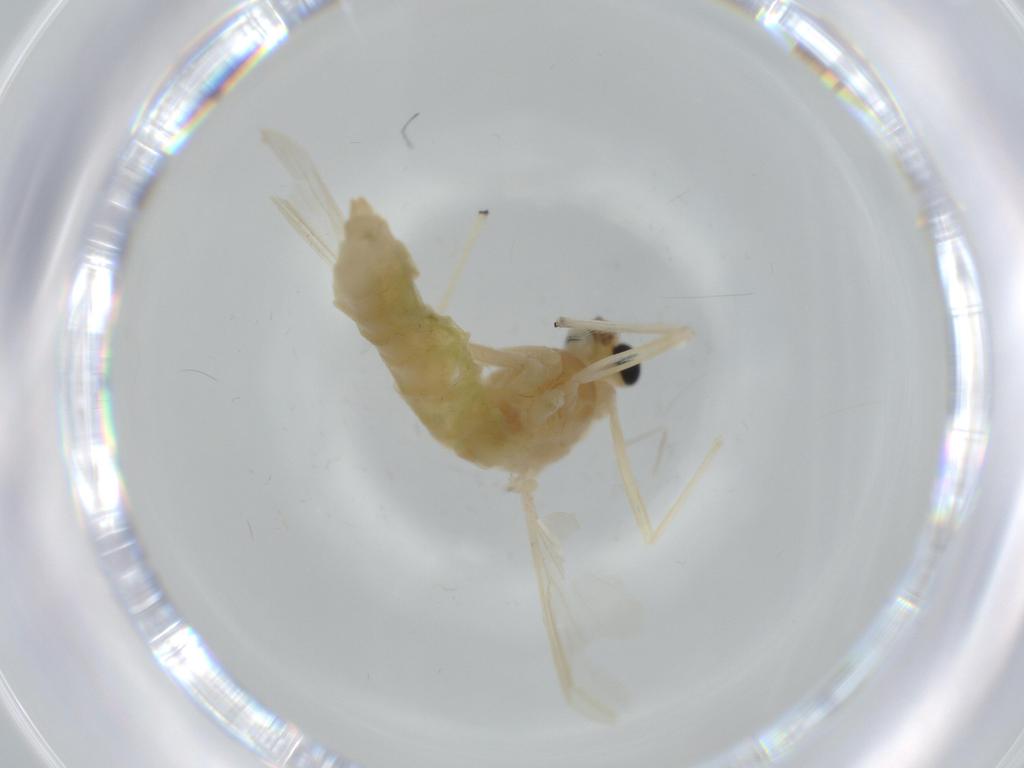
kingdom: Animalia
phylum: Arthropoda
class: Insecta
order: Diptera
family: Chironomidae
